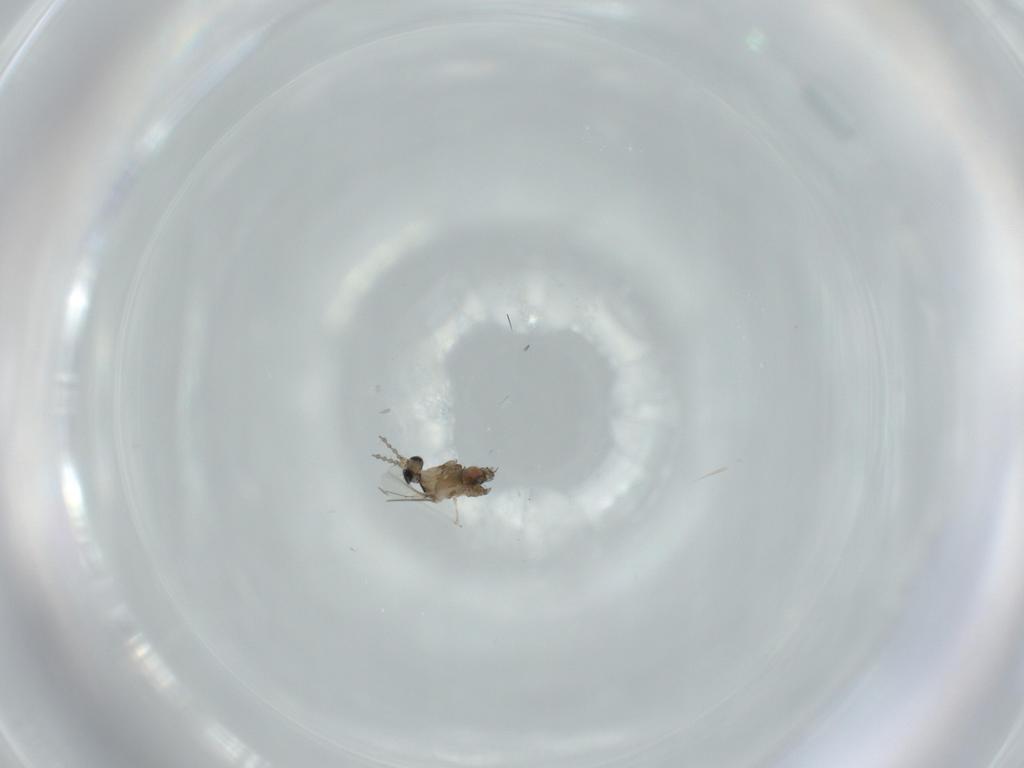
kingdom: Animalia
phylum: Arthropoda
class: Insecta
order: Diptera
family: Cecidomyiidae
